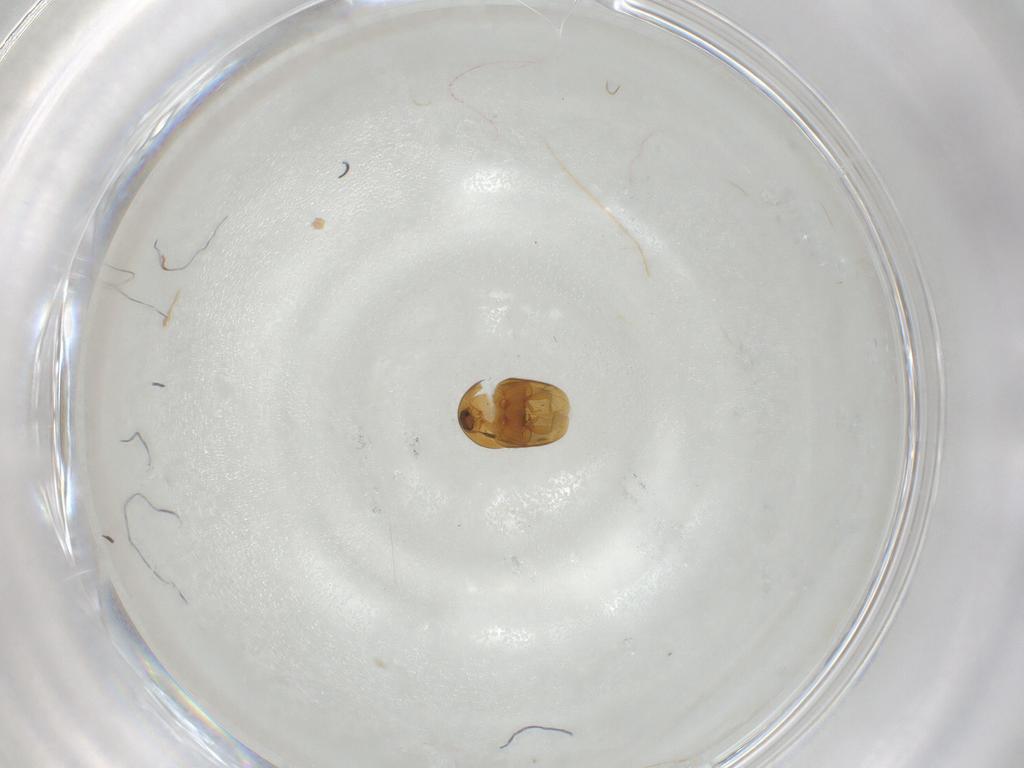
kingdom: Animalia
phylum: Arthropoda
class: Insecta
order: Coleoptera
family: Corylophidae
